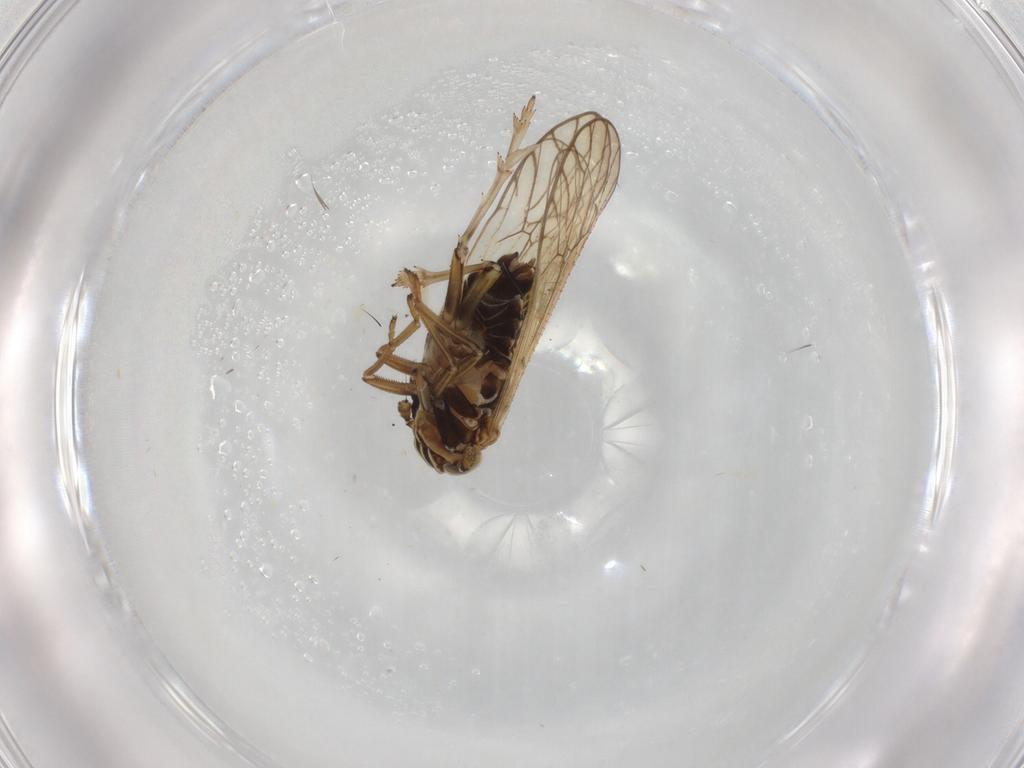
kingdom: Animalia
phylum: Arthropoda
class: Insecta
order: Hemiptera
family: Delphacidae
